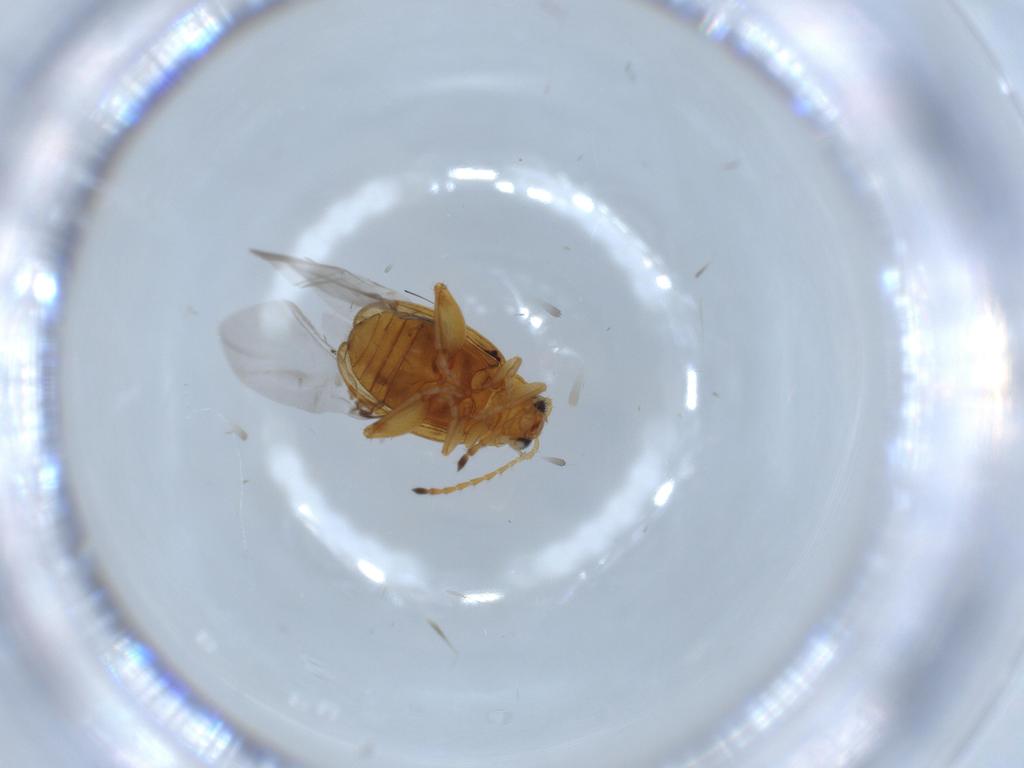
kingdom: Animalia
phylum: Arthropoda
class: Insecta
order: Coleoptera
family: Chrysomelidae
